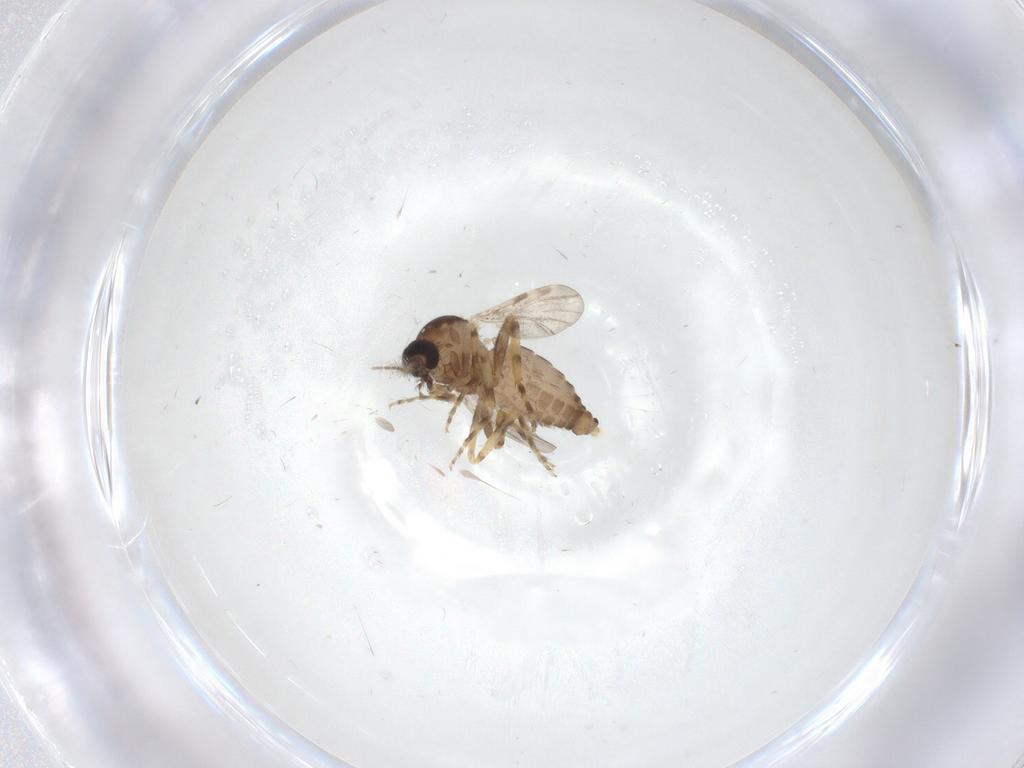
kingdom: Animalia
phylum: Arthropoda
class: Insecta
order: Diptera
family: Ceratopogonidae
